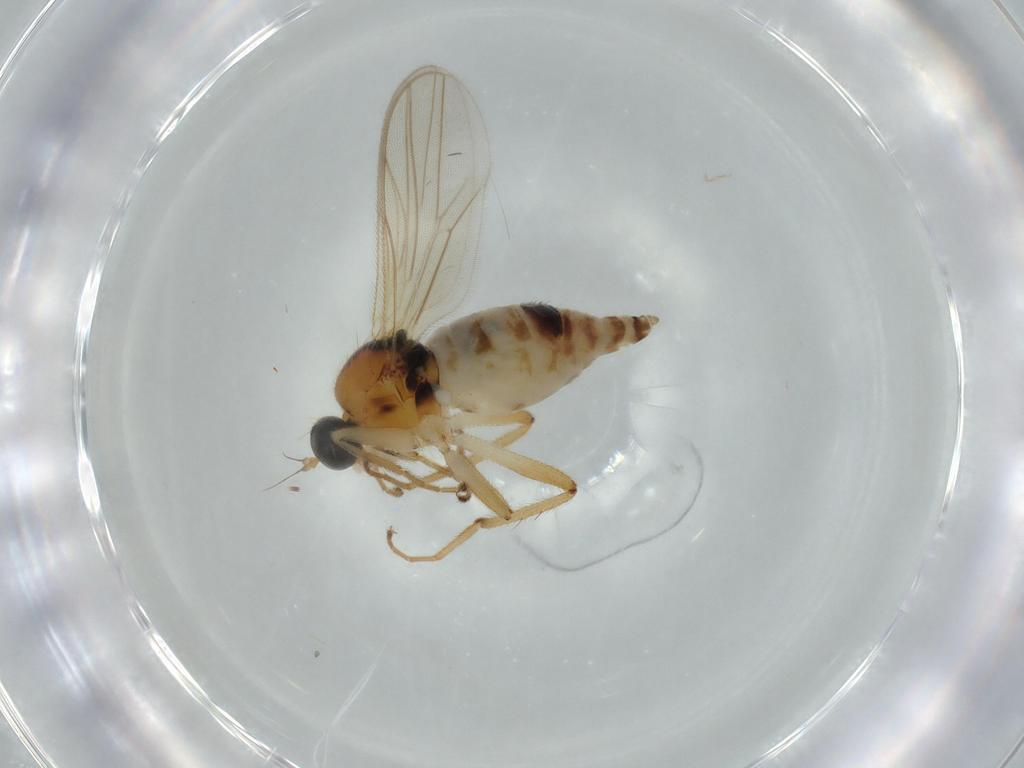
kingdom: Animalia
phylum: Arthropoda
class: Insecta
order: Diptera
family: Hybotidae
